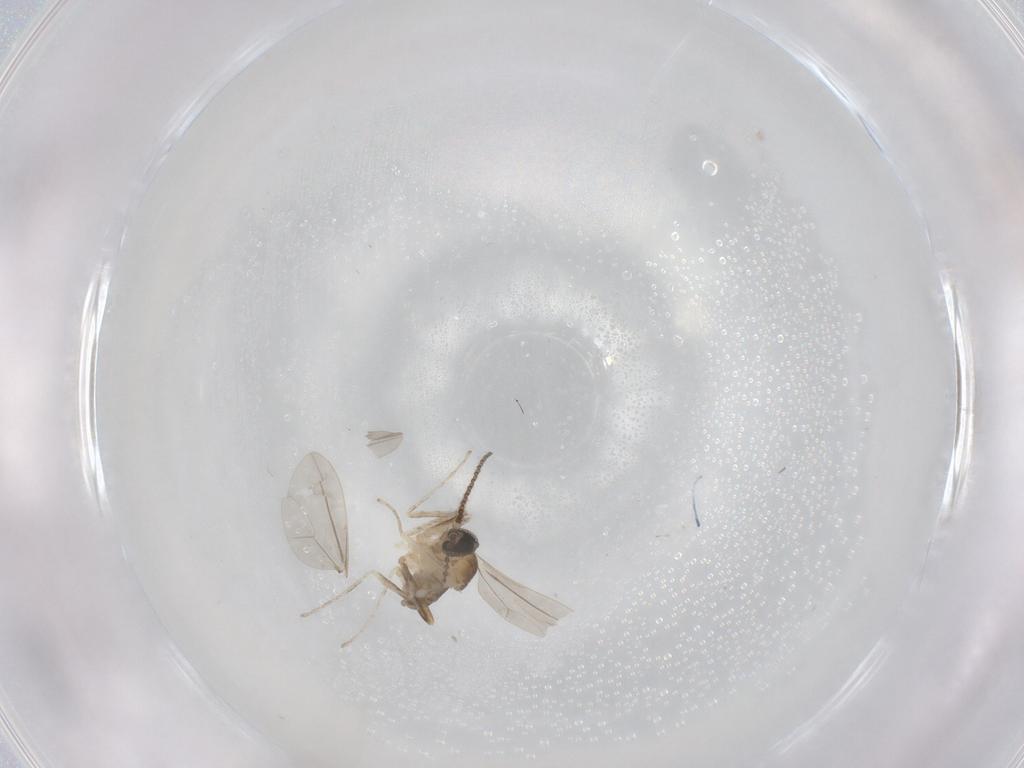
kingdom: Animalia
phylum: Arthropoda
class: Insecta
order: Diptera
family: Cecidomyiidae
